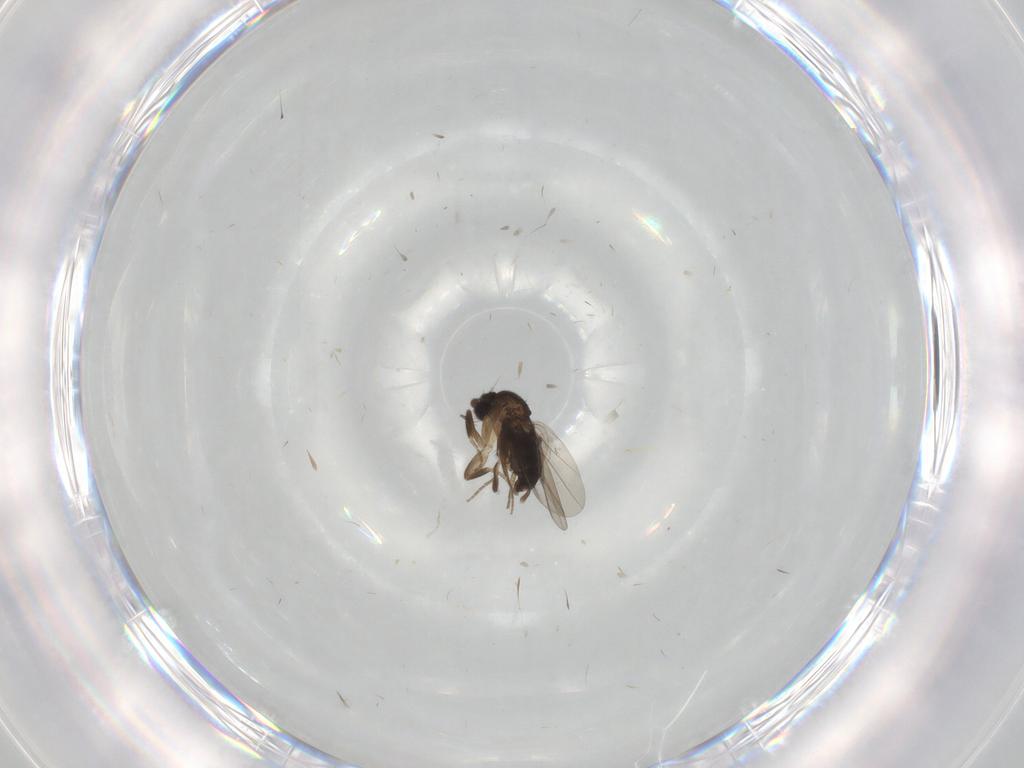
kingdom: Animalia
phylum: Arthropoda
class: Insecta
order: Diptera
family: Phoridae
